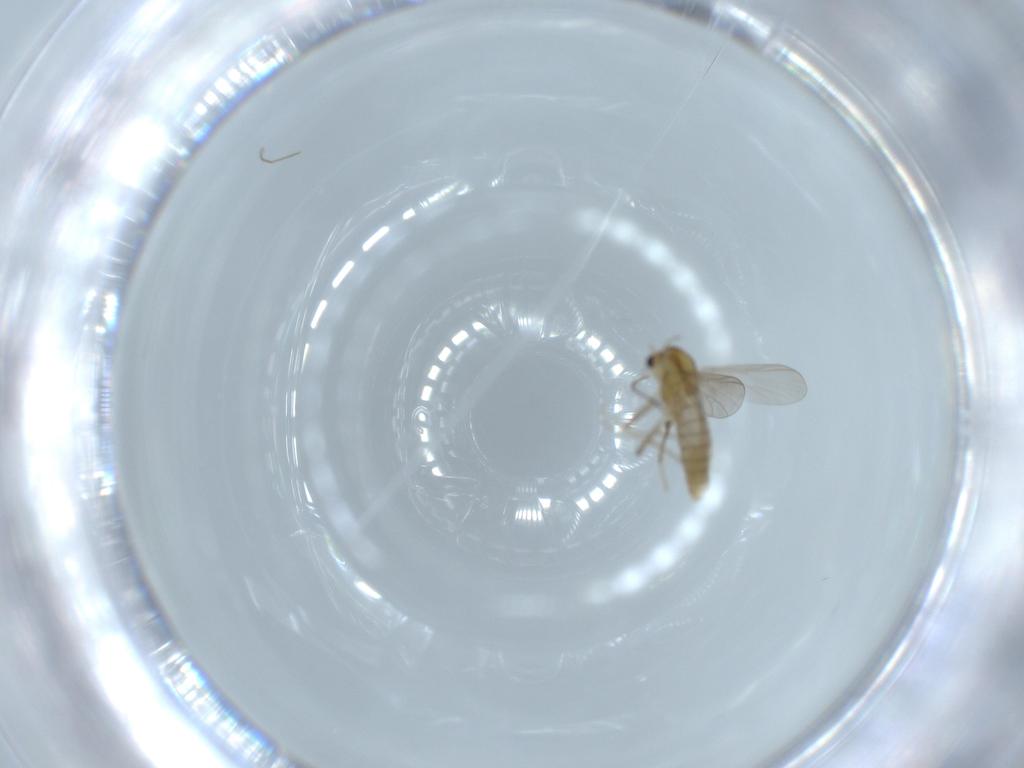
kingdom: Animalia
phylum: Arthropoda
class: Insecta
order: Diptera
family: Chironomidae
